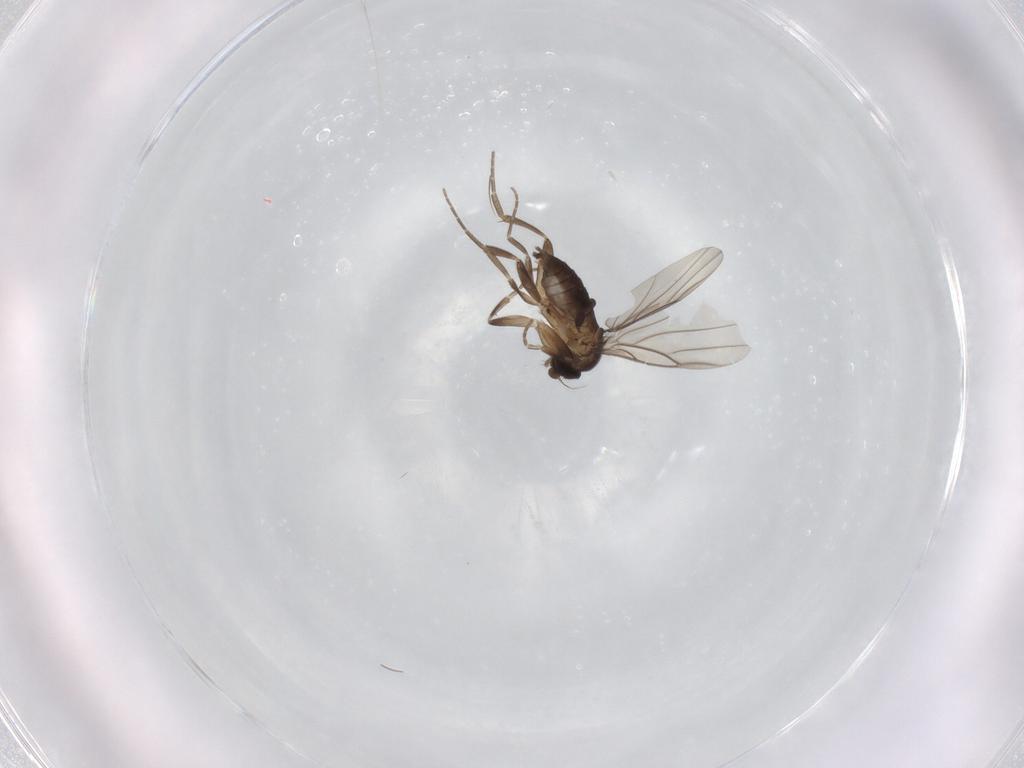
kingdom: Animalia
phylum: Arthropoda
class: Insecta
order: Diptera
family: Phoridae
